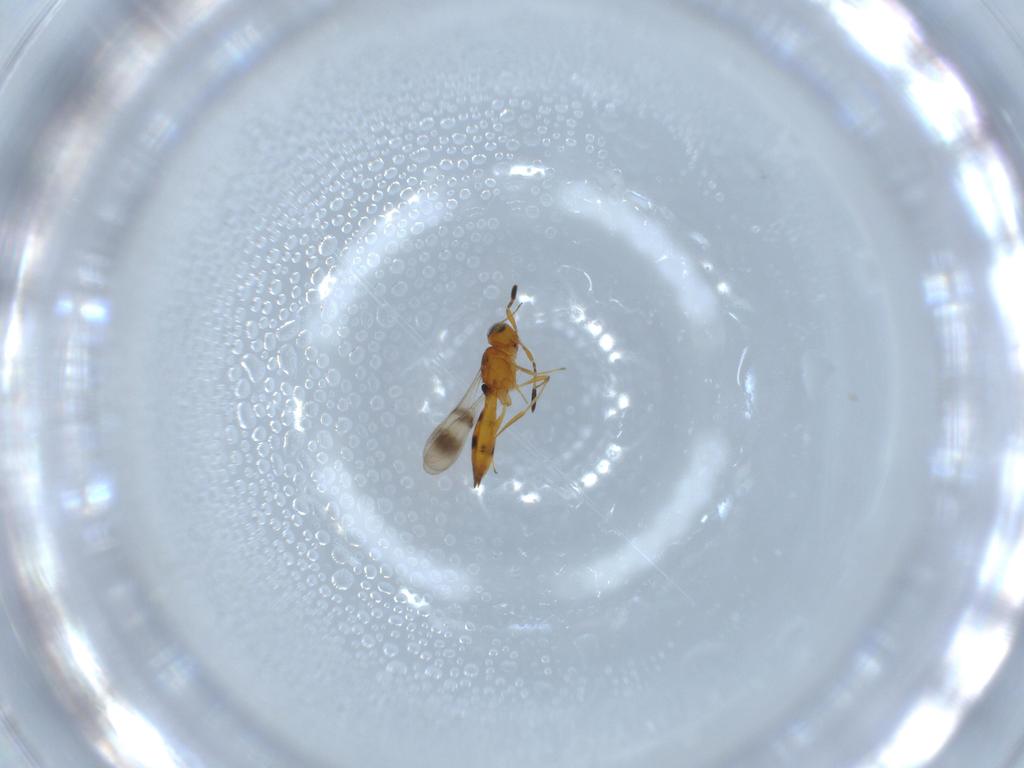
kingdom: Animalia
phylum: Arthropoda
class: Insecta
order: Hymenoptera
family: Scelionidae
